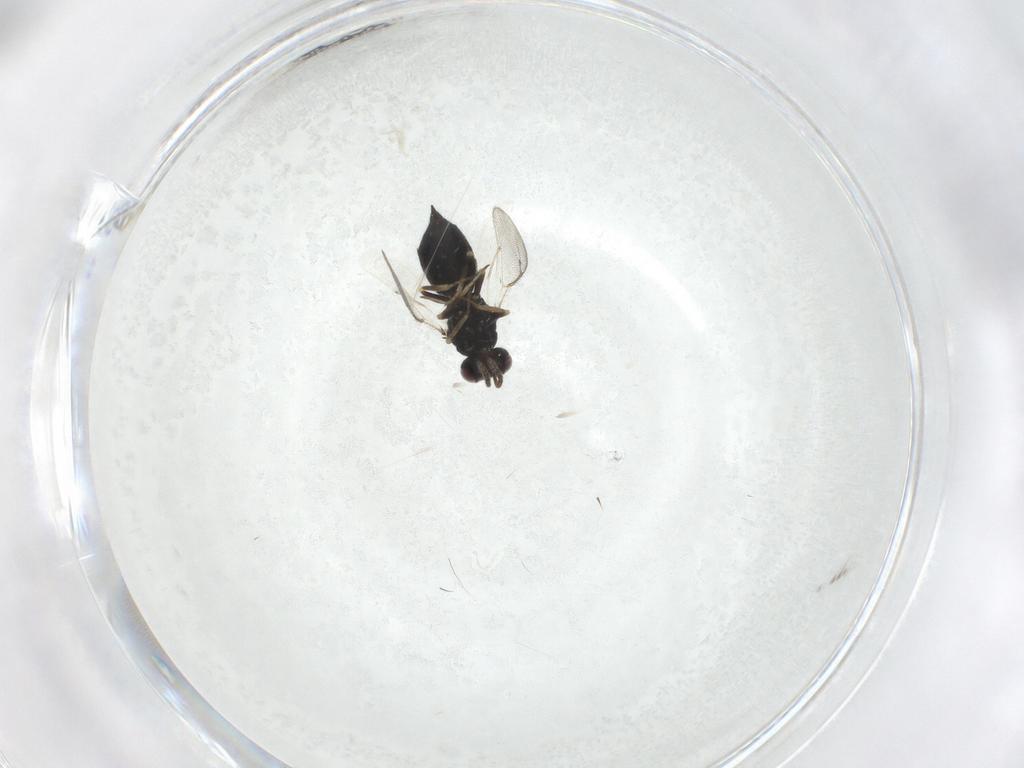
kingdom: Animalia
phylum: Arthropoda
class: Insecta
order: Hymenoptera
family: Eulophidae
